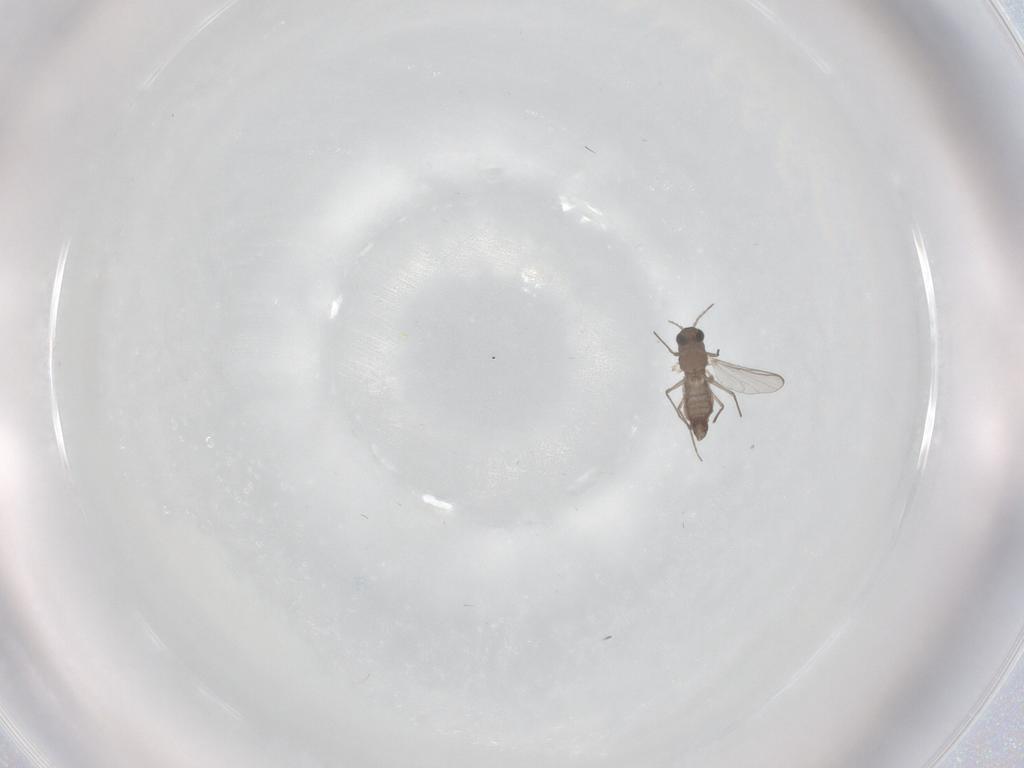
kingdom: Animalia
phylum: Arthropoda
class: Insecta
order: Diptera
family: Chironomidae
